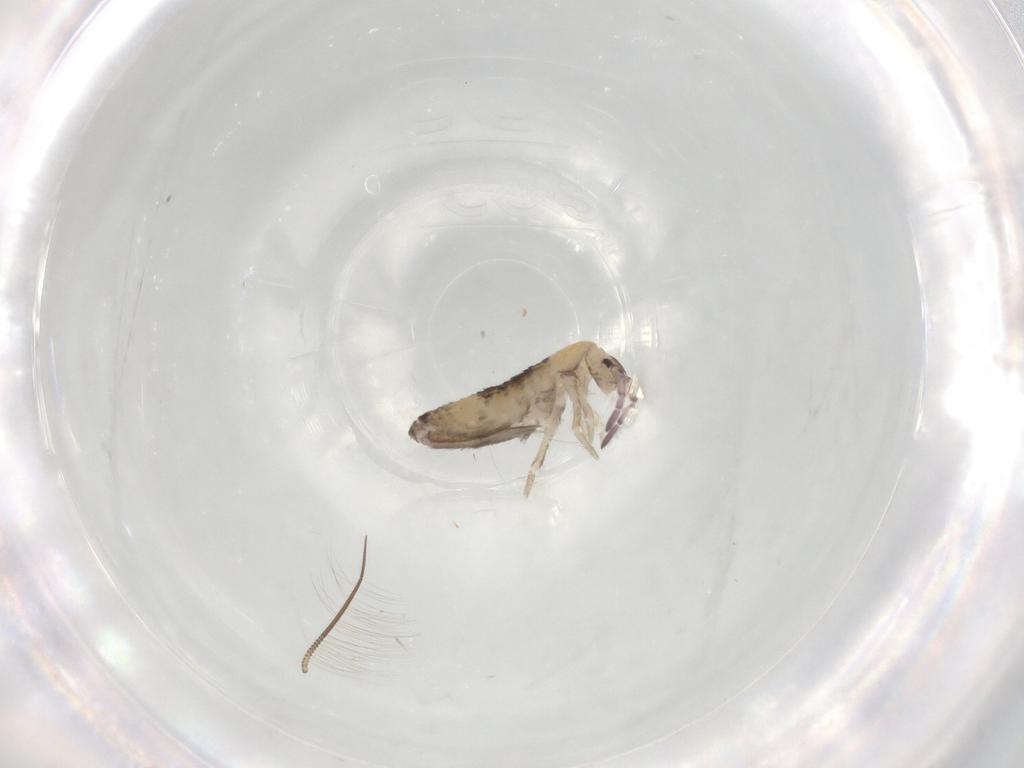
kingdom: Animalia
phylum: Arthropoda
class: Collembola
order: Entomobryomorpha
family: Entomobryidae
